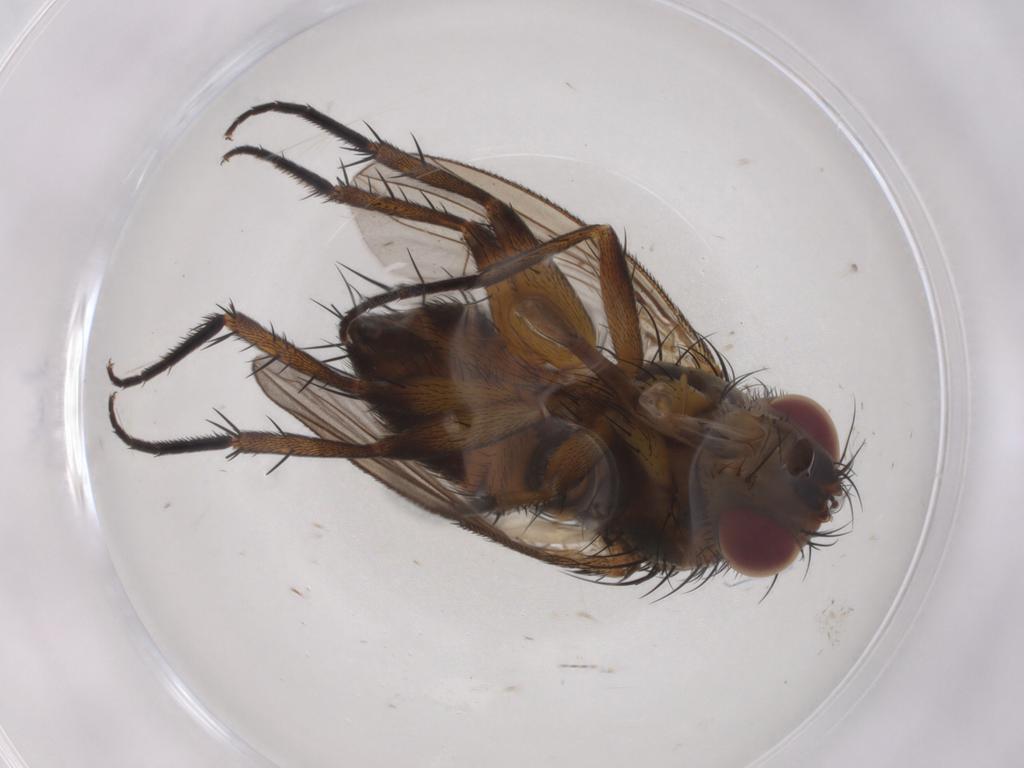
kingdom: Animalia
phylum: Arthropoda
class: Insecta
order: Diptera
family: Tachinidae
